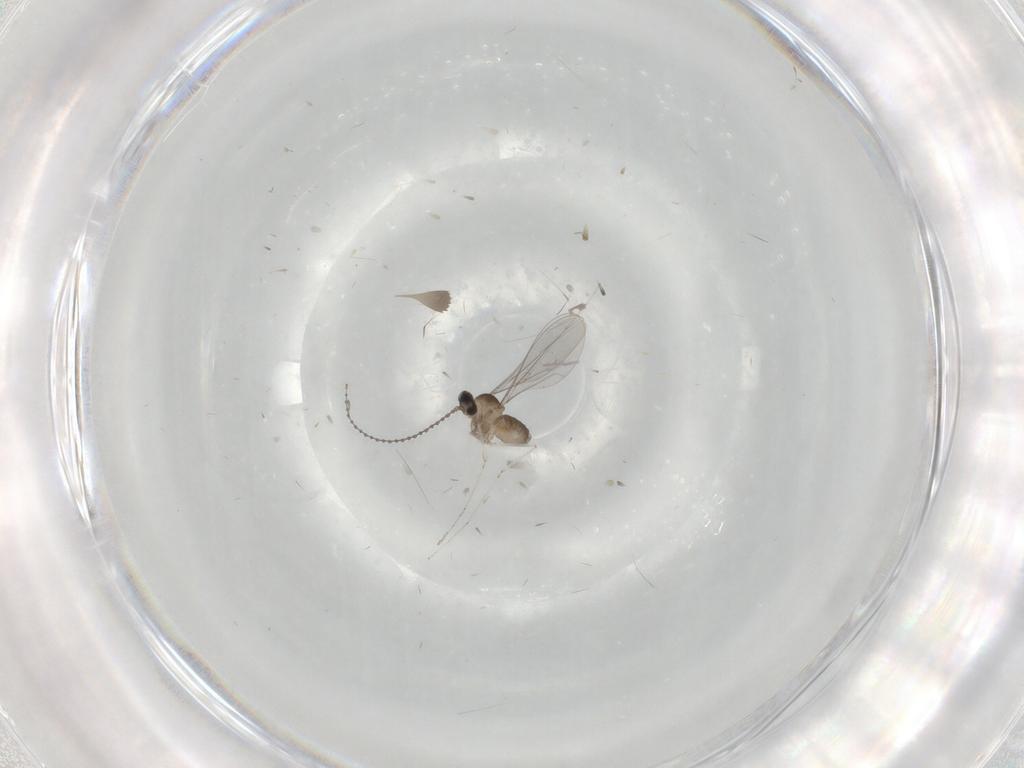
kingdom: Animalia
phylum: Arthropoda
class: Insecta
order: Diptera
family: Cecidomyiidae
